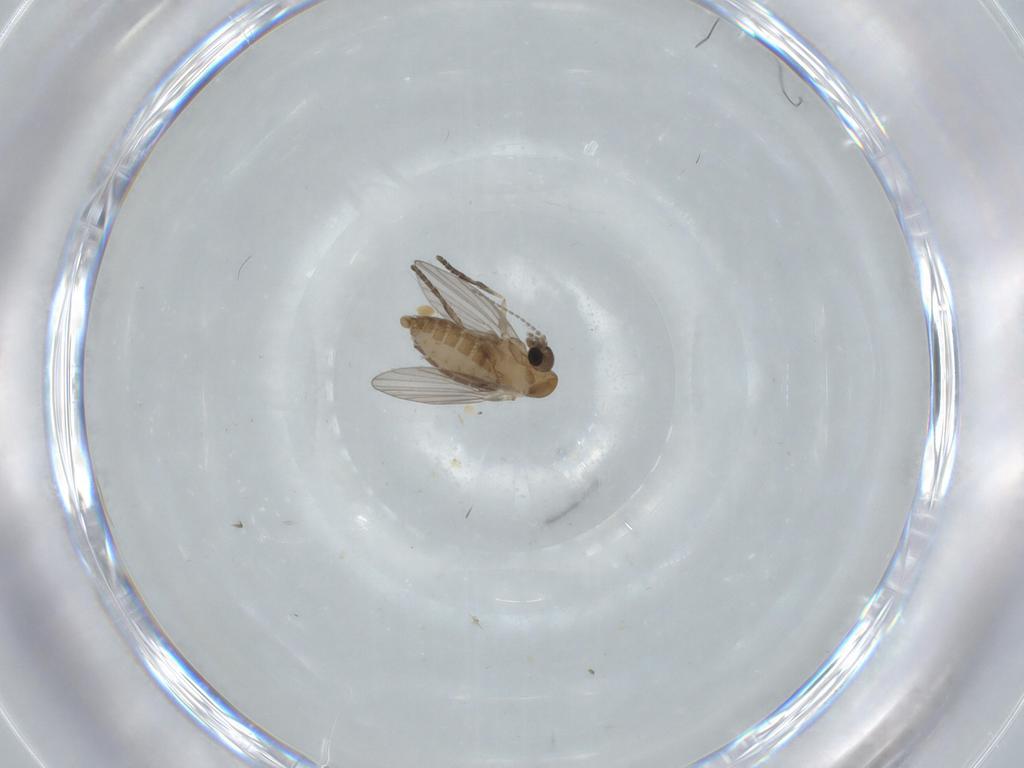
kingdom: Animalia
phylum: Arthropoda
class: Insecta
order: Diptera
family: Psychodidae
